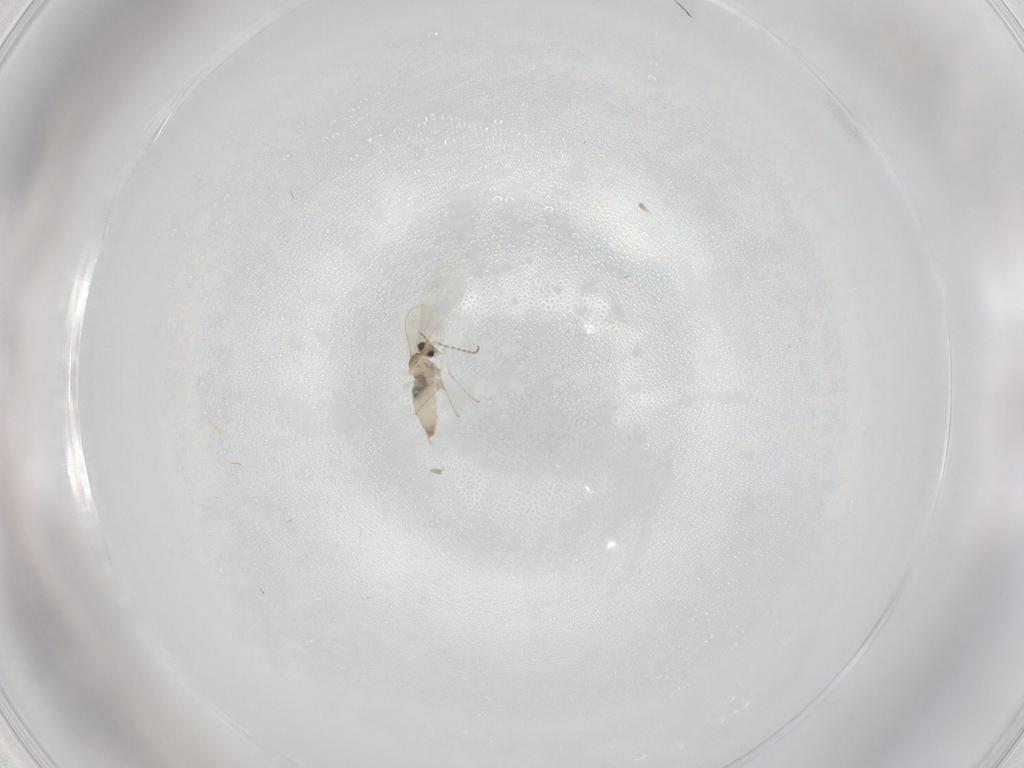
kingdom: Animalia
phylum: Arthropoda
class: Insecta
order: Diptera
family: Cecidomyiidae
